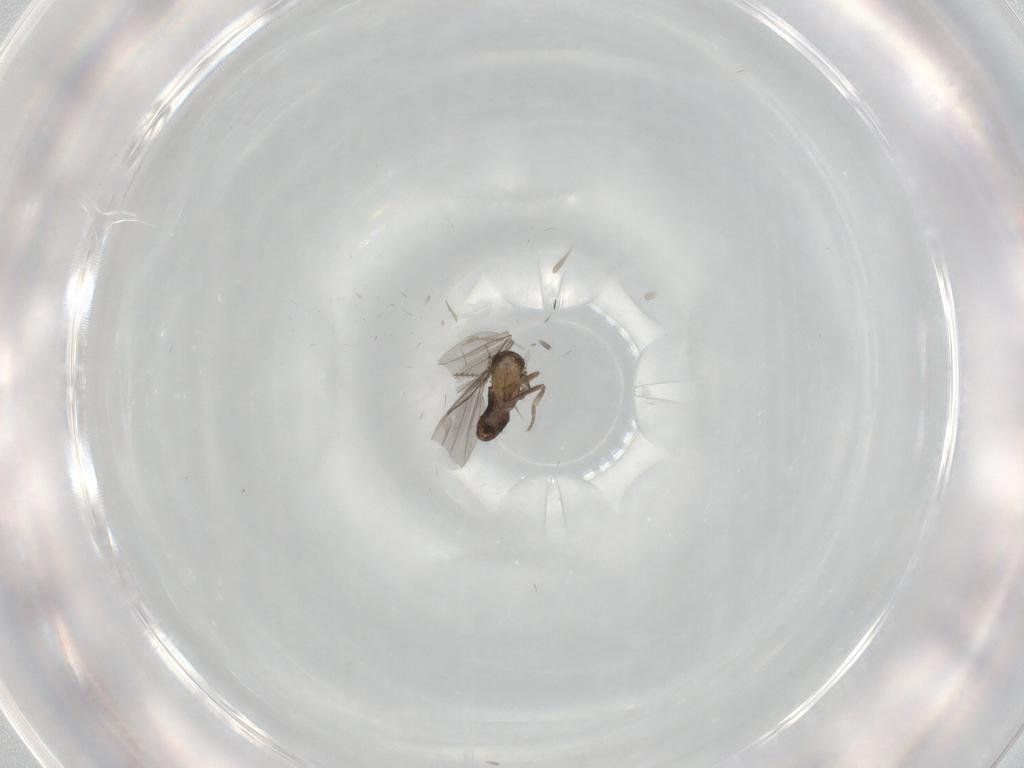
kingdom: Animalia
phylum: Arthropoda
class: Insecta
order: Diptera
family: Cecidomyiidae
